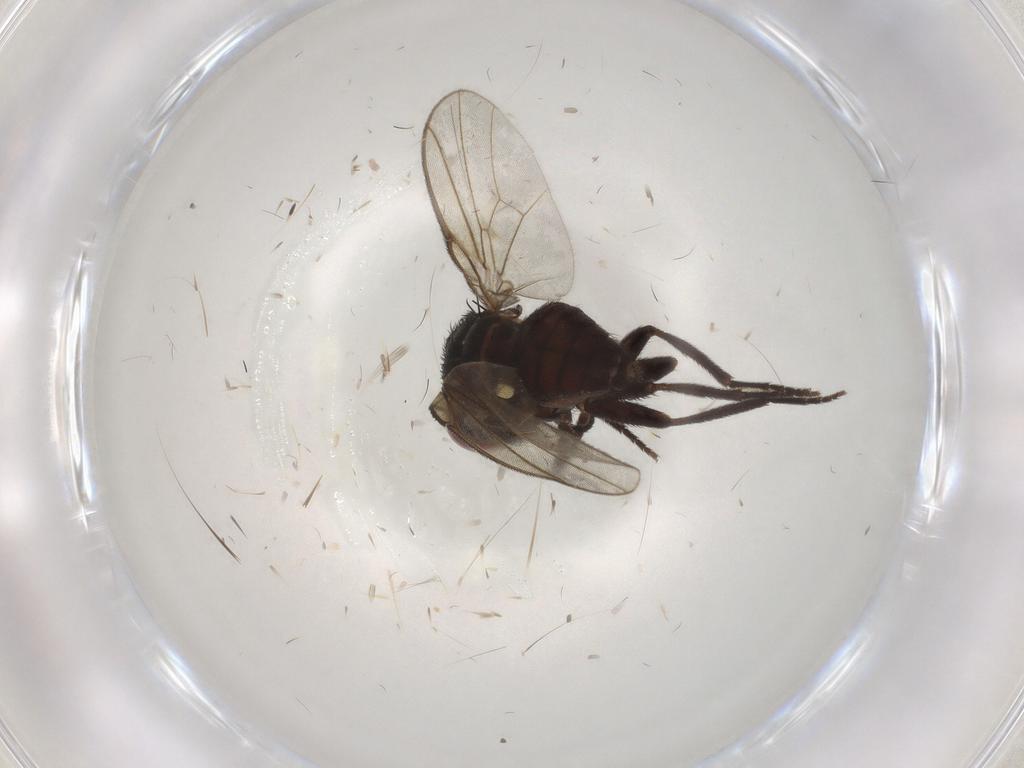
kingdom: Animalia
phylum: Arthropoda
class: Insecta
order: Diptera
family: Agromyzidae
